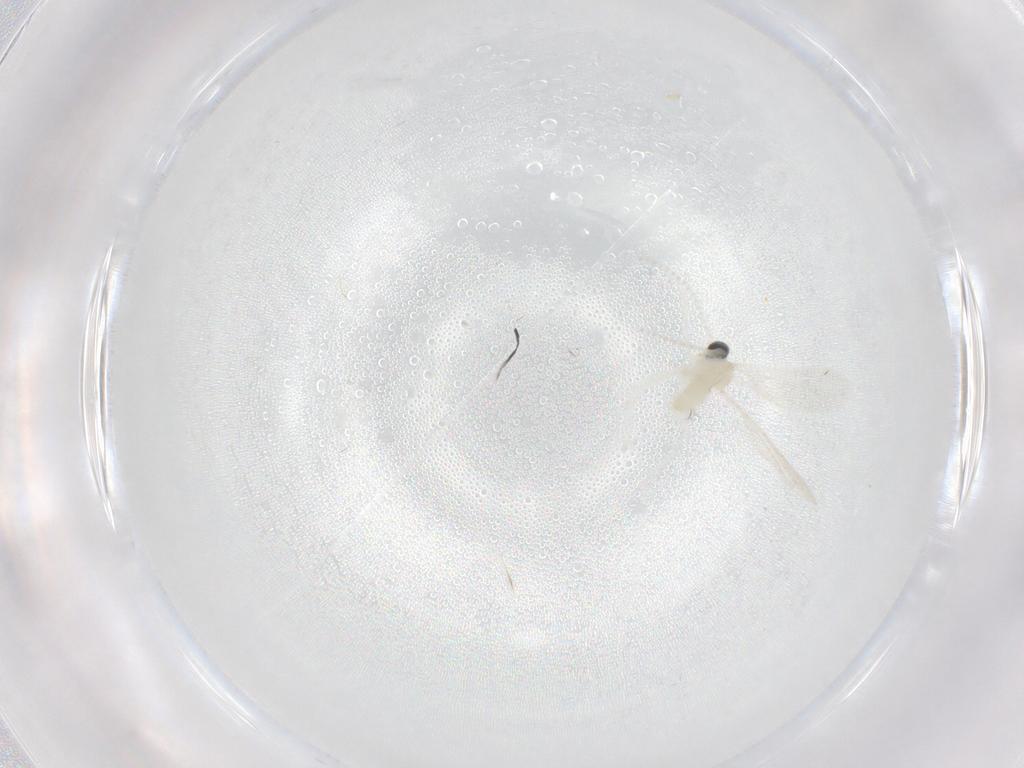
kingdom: Animalia
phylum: Arthropoda
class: Insecta
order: Diptera
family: Cecidomyiidae
